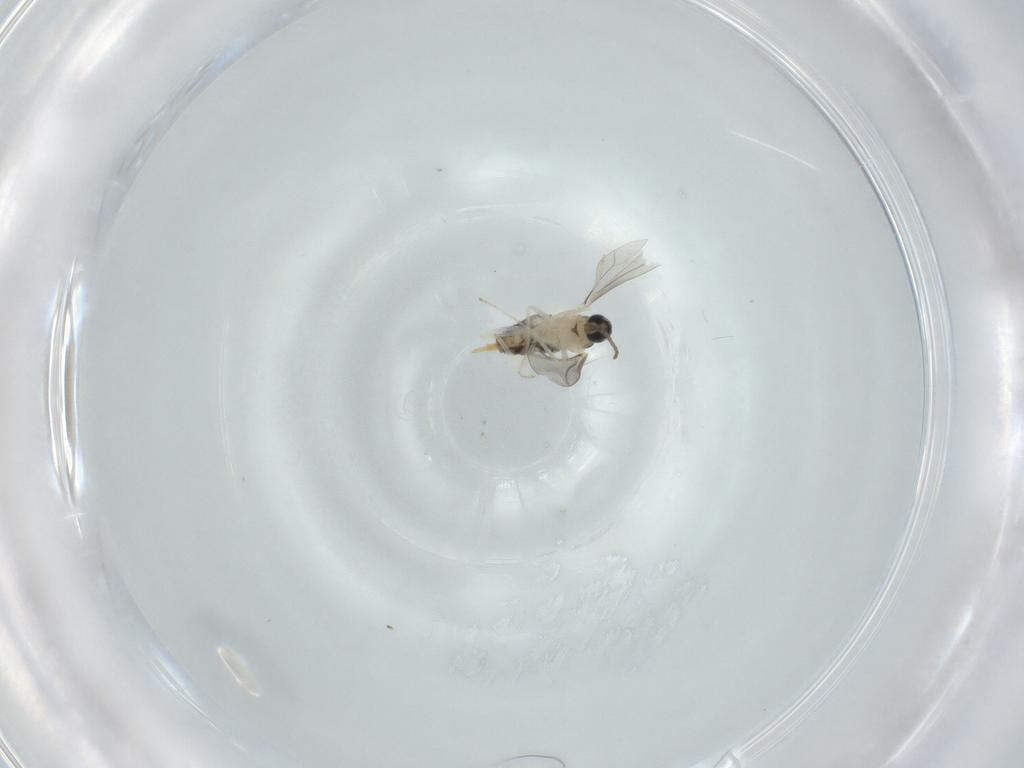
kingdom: Animalia
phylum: Arthropoda
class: Insecta
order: Diptera
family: Cecidomyiidae
